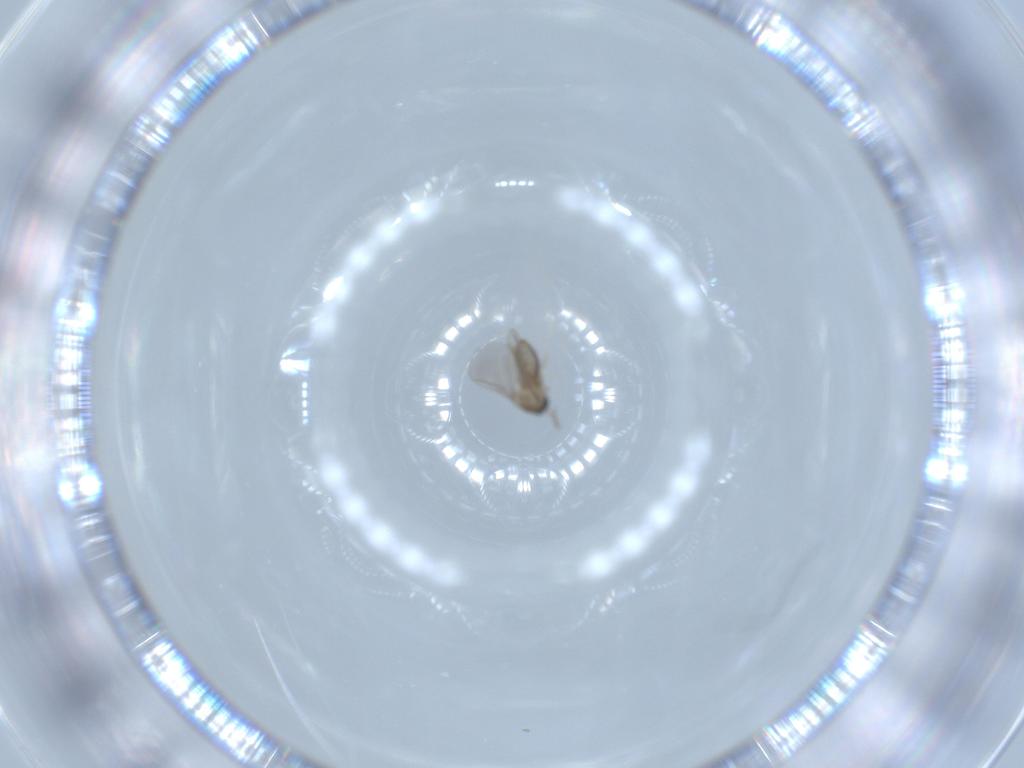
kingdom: Animalia
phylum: Arthropoda
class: Insecta
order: Diptera
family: Cecidomyiidae
